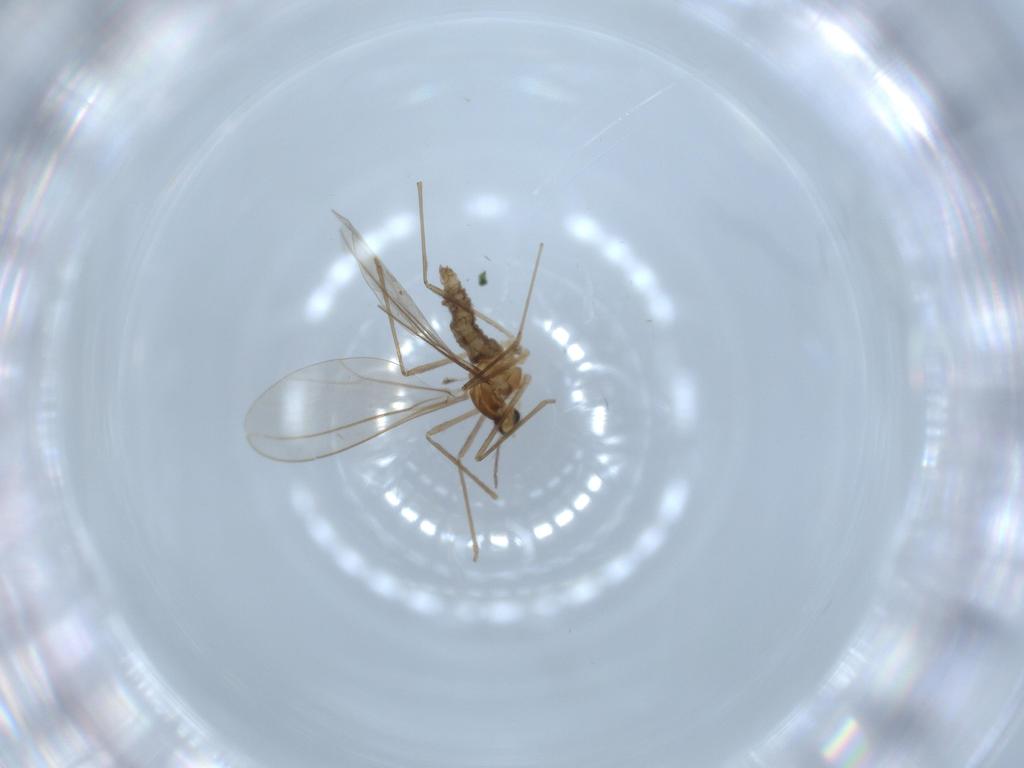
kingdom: Animalia
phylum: Arthropoda
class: Insecta
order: Diptera
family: Cecidomyiidae
